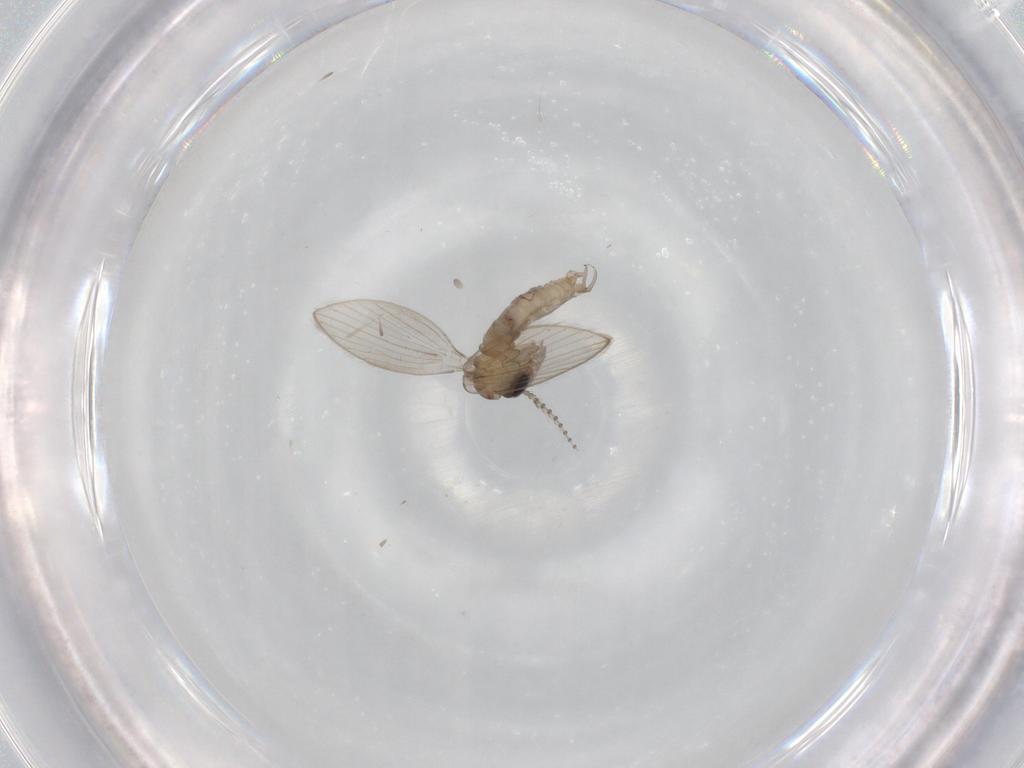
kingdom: Animalia
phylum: Arthropoda
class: Insecta
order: Diptera
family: Psychodidae
